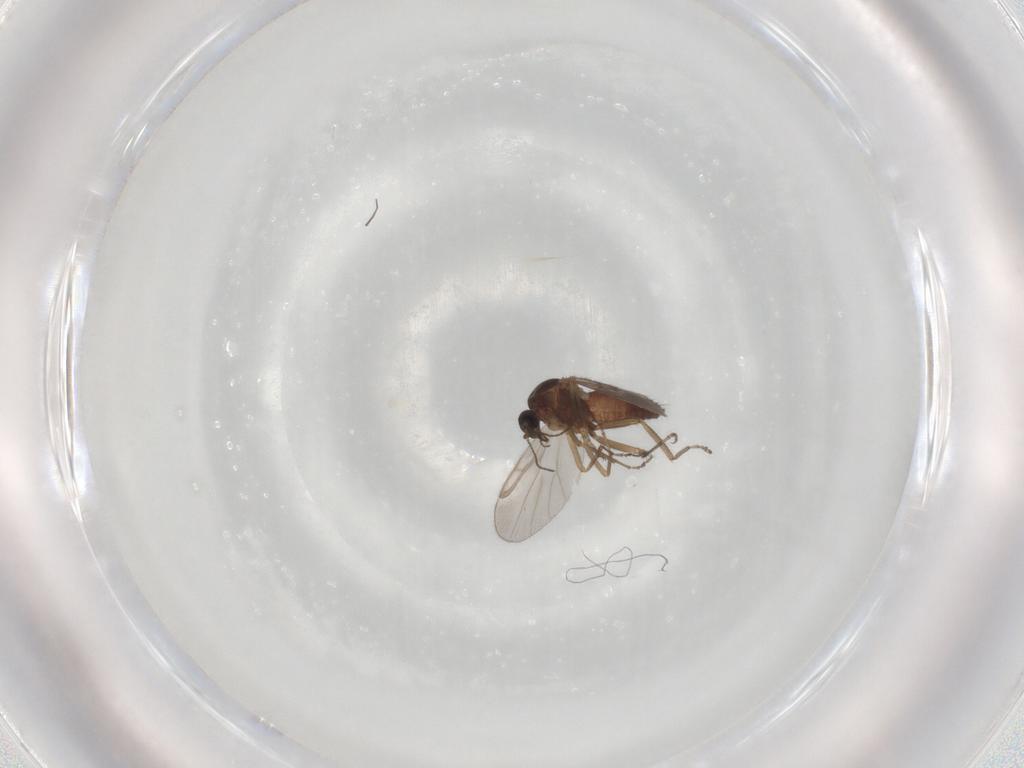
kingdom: Animalia
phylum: Arthropoda
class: Insecta
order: Diptera
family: Ceratopogonidae
